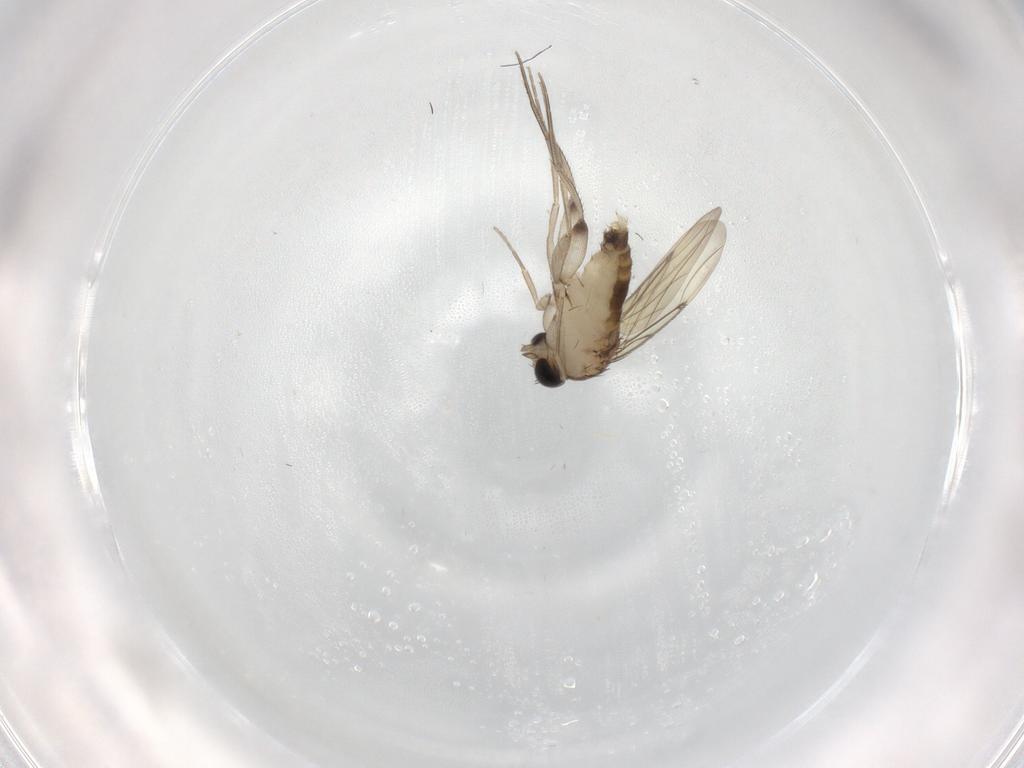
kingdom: Animalia
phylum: Arthropoda
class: Insecta
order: Diptera
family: Phoridae
